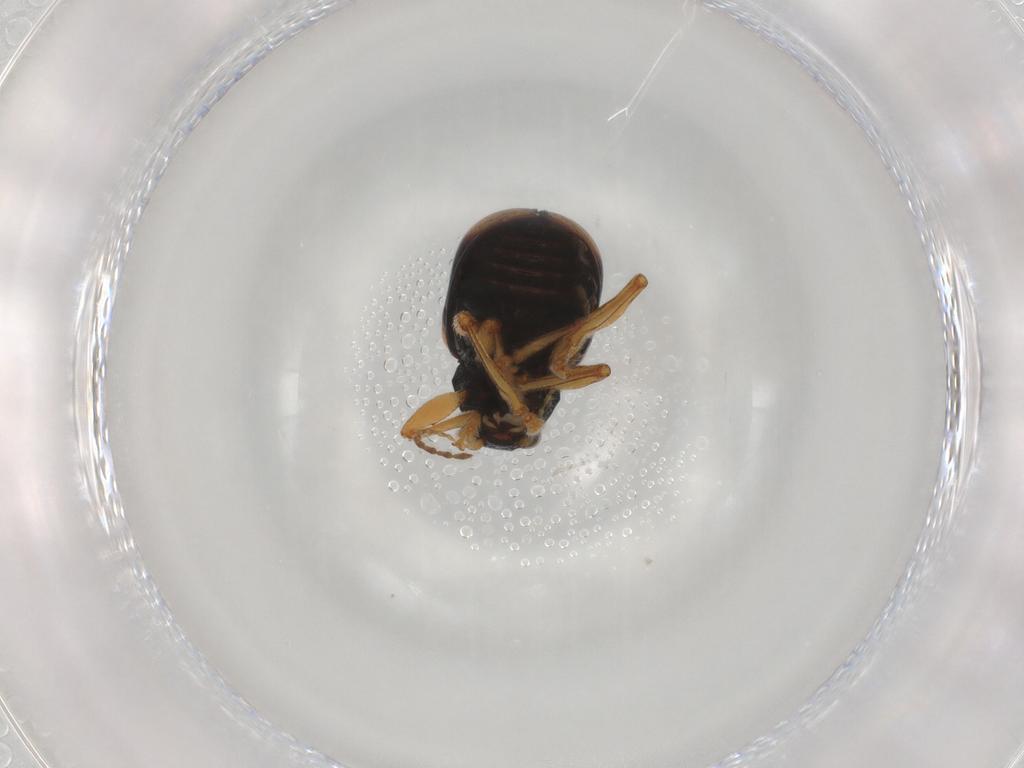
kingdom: Animalia
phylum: Arthropoda
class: Insecta
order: Coleoptera
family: Chrysomelidae
